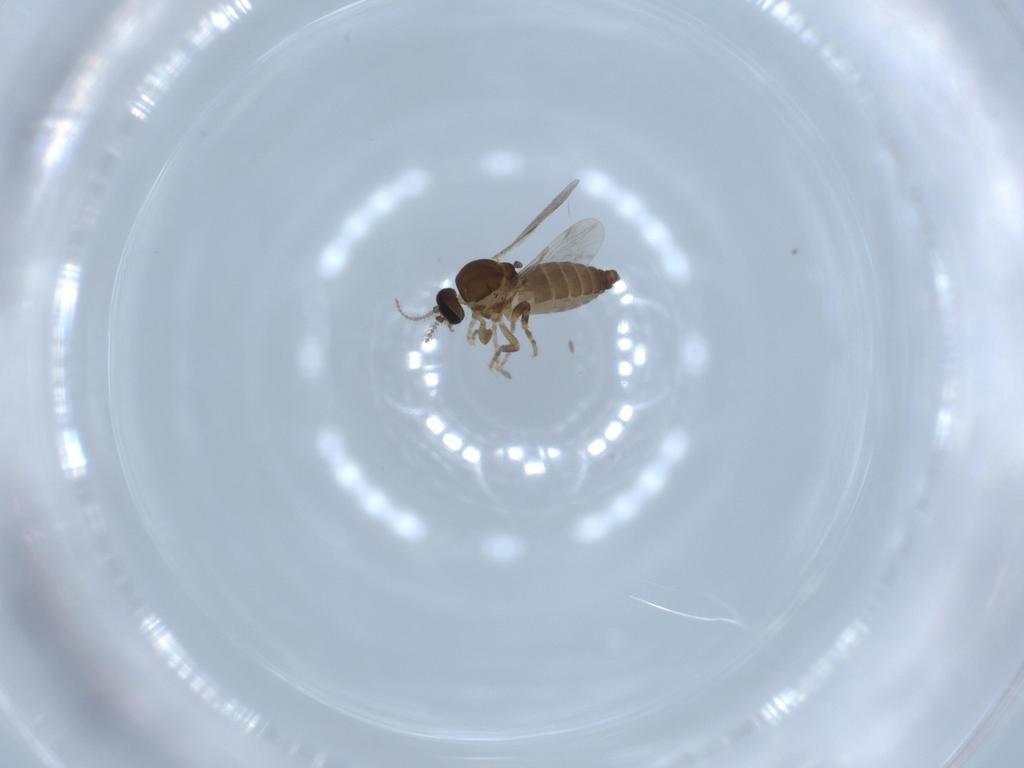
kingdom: Animalia
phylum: Arthropoda
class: Insecta
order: Diptera
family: Ceratopogonidae
